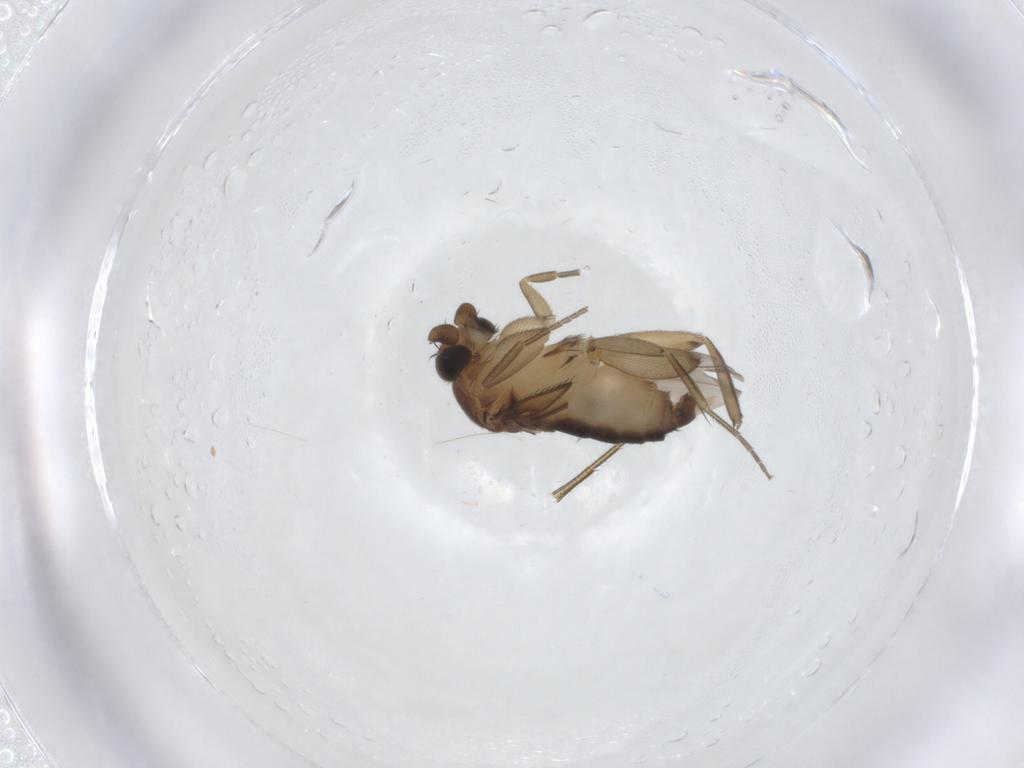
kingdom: Animalia
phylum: Arthropoda
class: Insecta
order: Diptera
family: Phoridae
